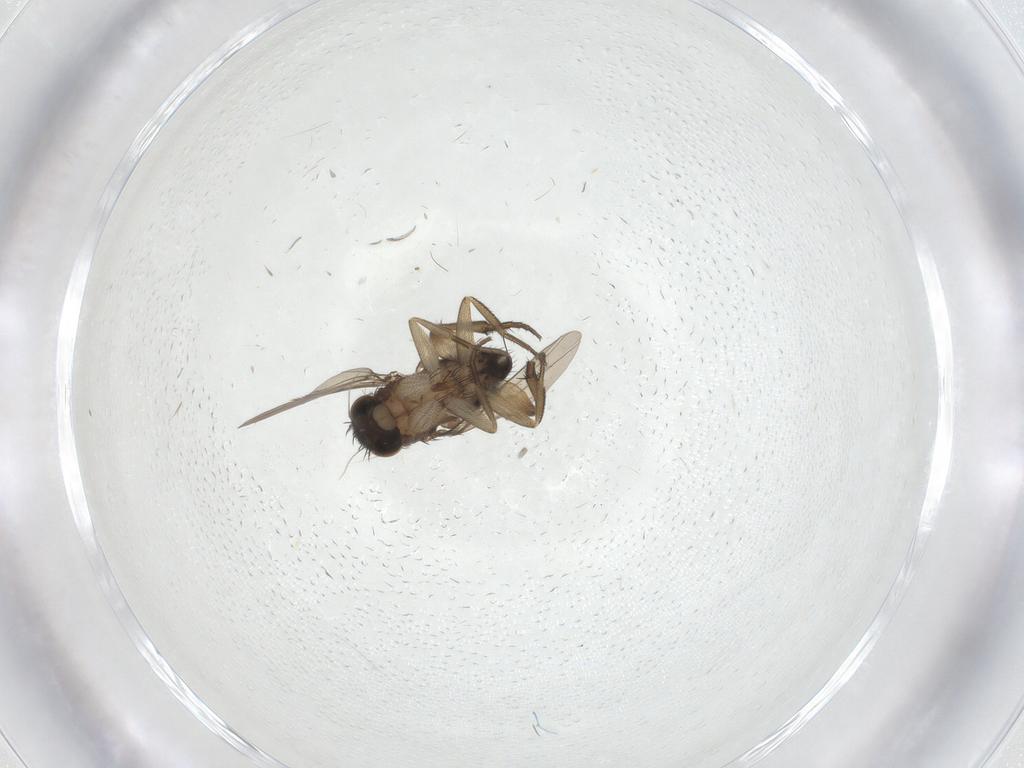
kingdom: Animalia
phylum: Arthropoda
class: Insecta
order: Diptera
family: Phoridae
